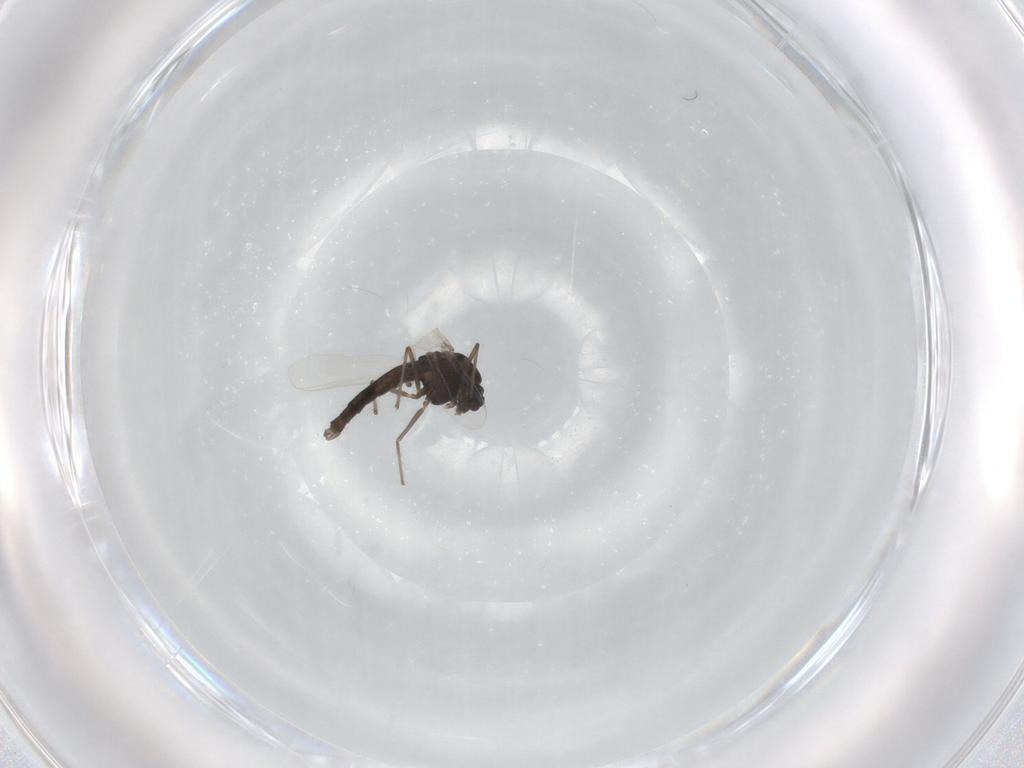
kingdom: Animalia
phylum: Arthropoda
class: Insecta
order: Diptera
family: Chironomidae
